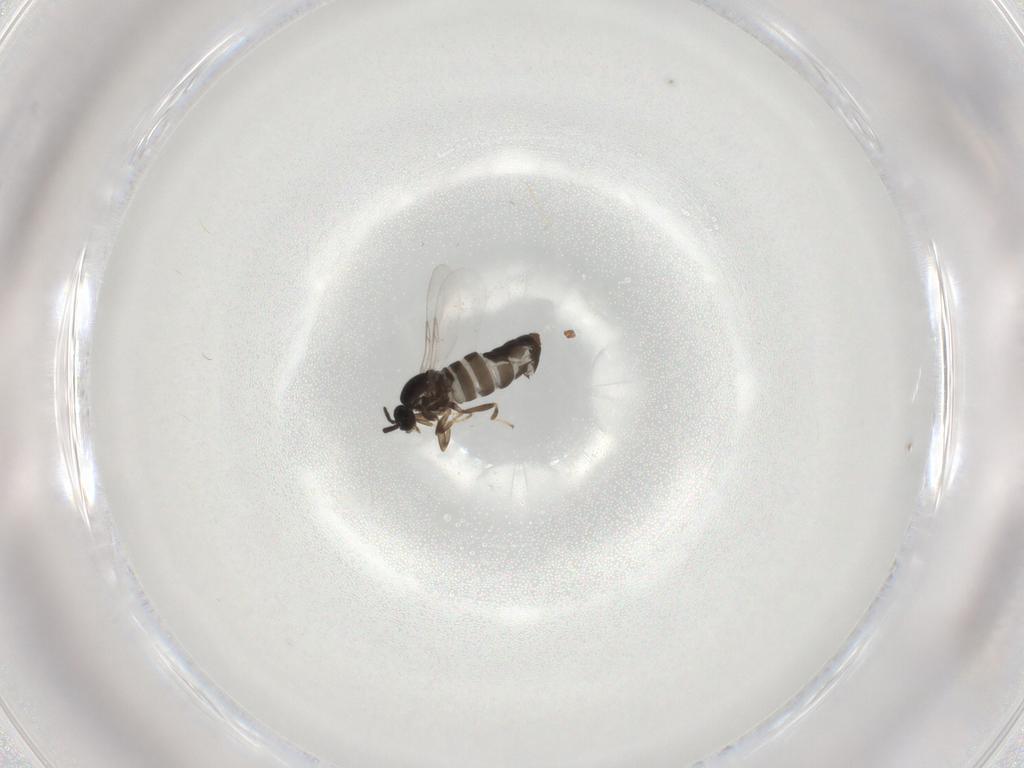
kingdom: Animalia
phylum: Arthropoda
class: Insecta
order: Diptera
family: Scatopsidae
